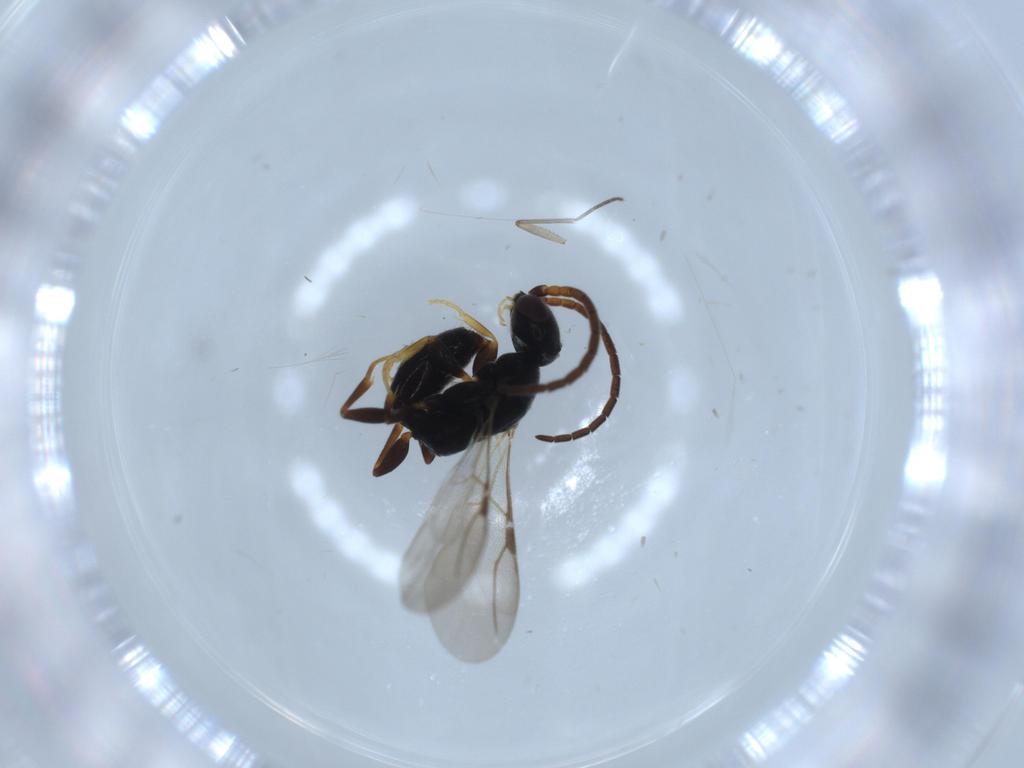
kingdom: Animalia
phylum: Arthropoda
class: Insecta
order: Hymenoptera
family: Bethylidae
